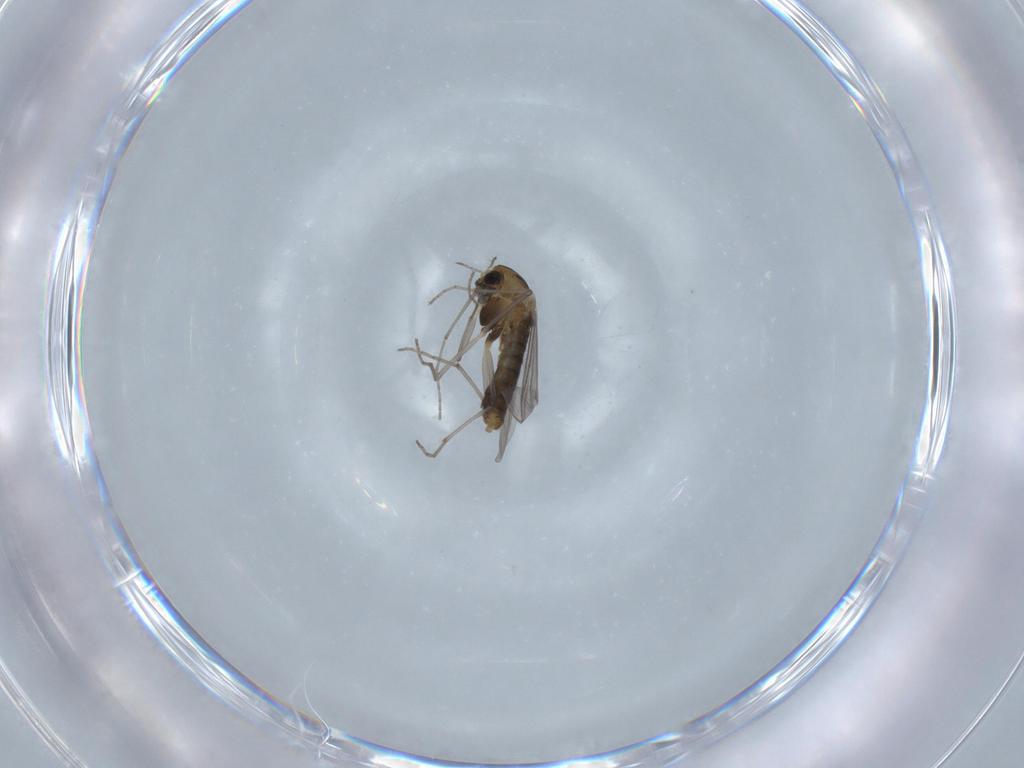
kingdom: Animalia
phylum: Arthropoda
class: Insecta
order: Diptera
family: Chironomidae
